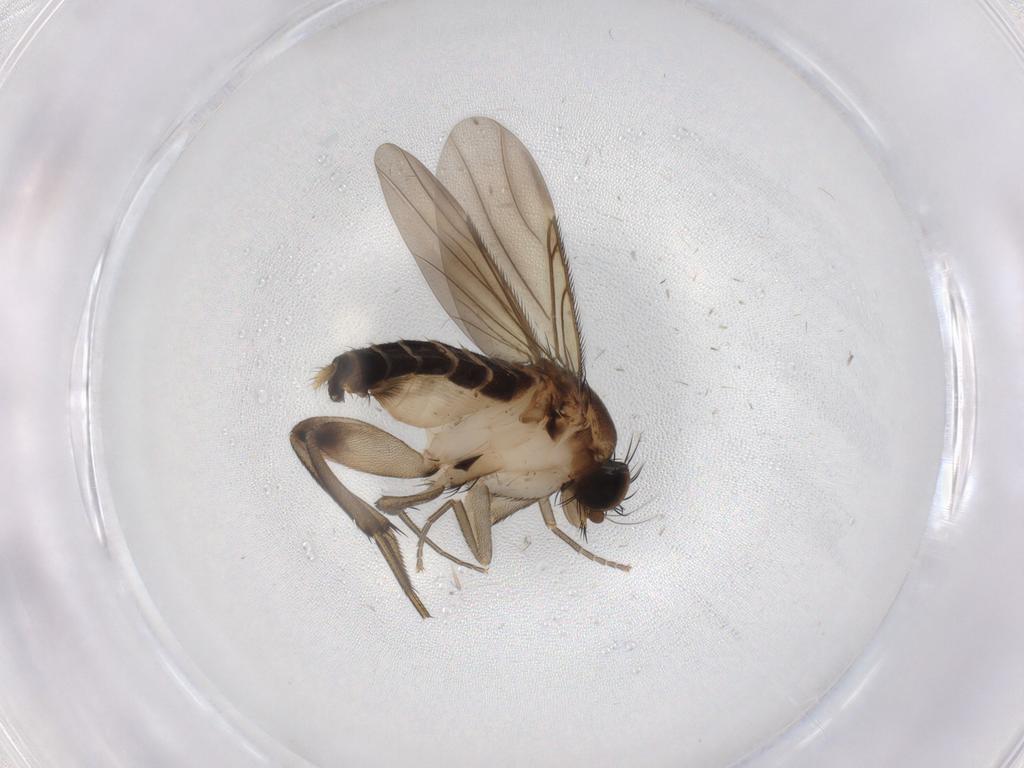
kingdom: Animalia
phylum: Arthropoda
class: Insecta
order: Diptera
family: Phoridae
